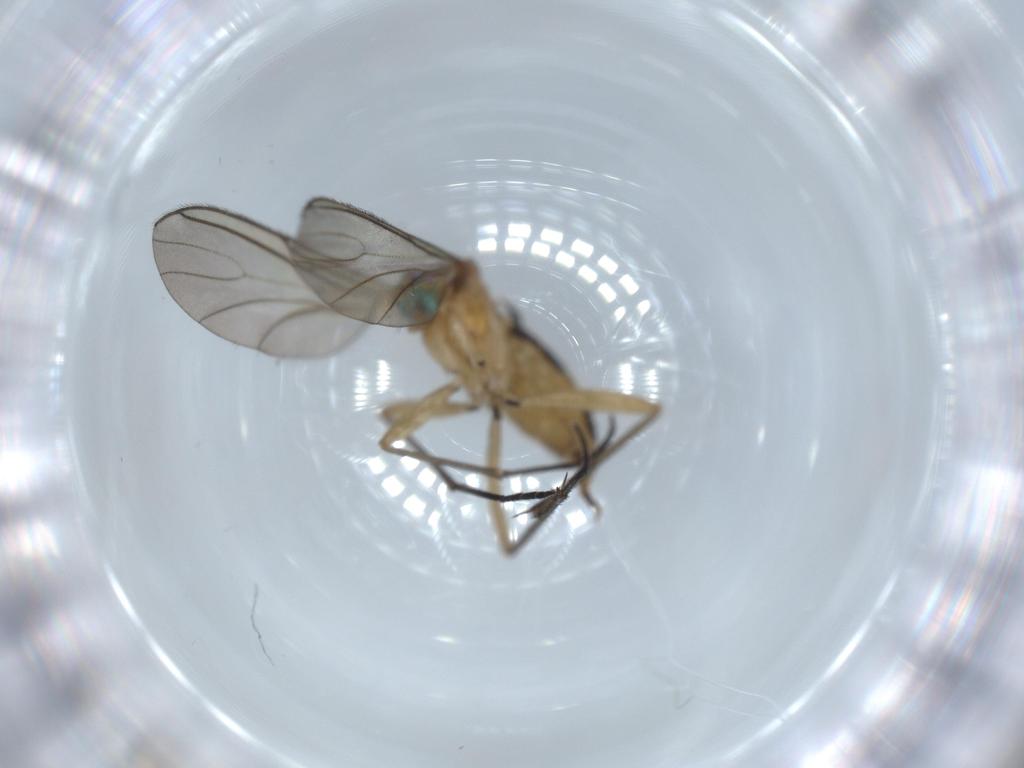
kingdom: Animalia
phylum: Arthropoda
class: Insecta
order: Diptera
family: Sciaridae
